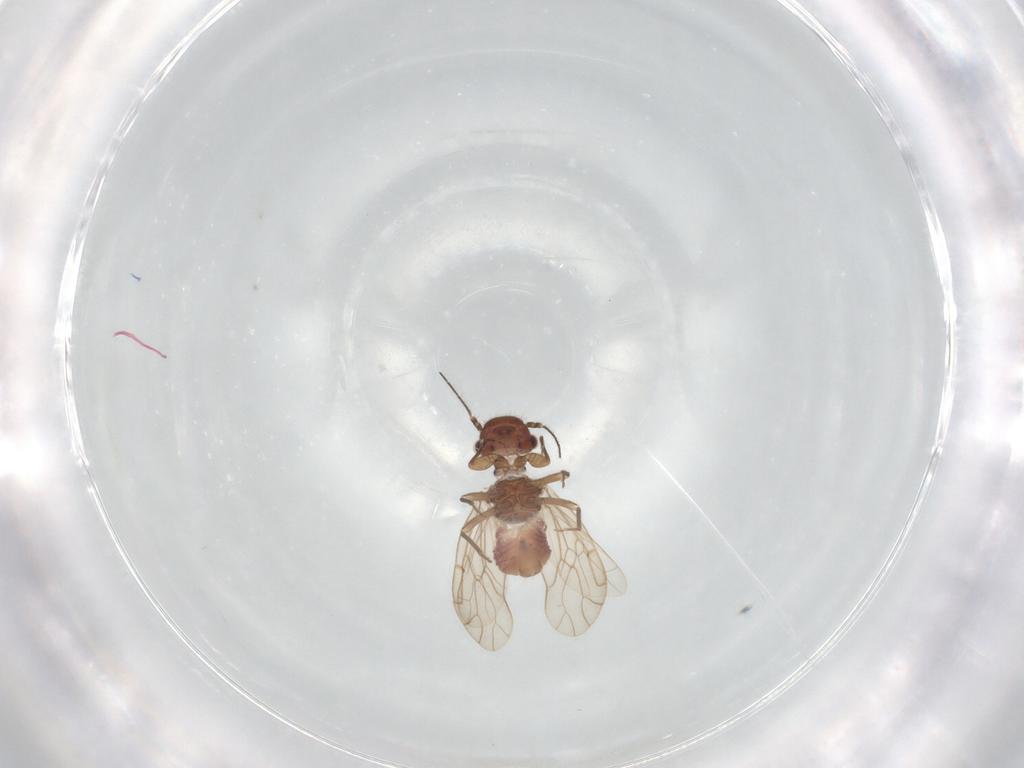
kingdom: Animalia
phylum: Arthropoda
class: Insecta
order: Psocodea
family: Ectopsocidae
